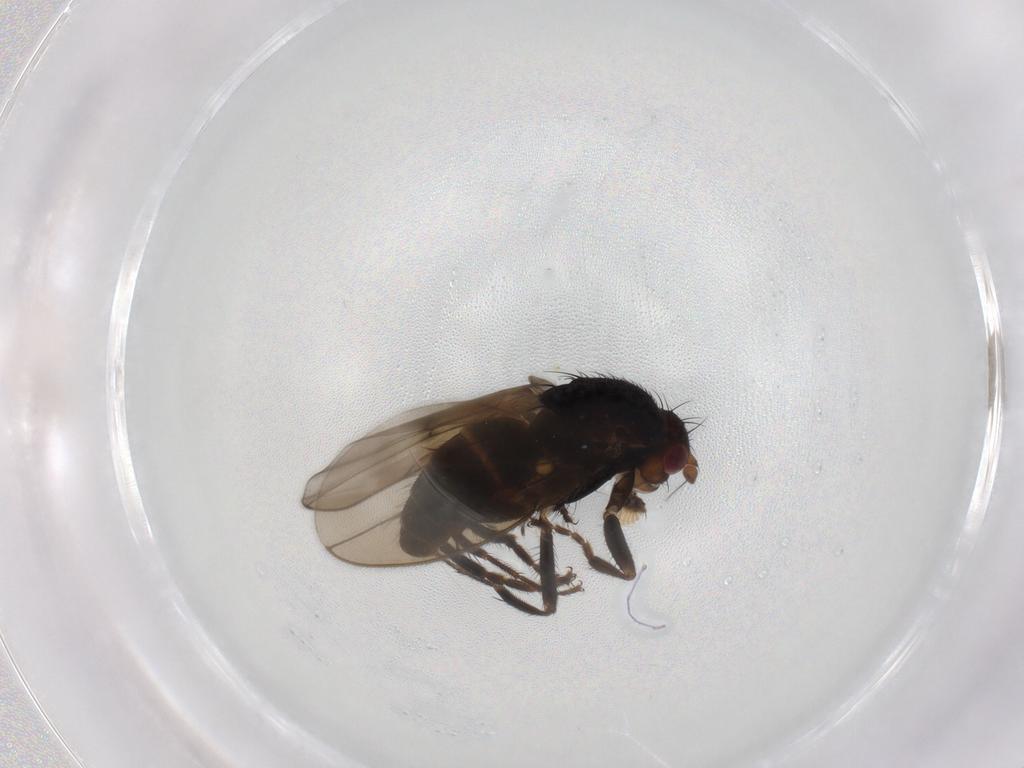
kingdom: Animalia
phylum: Arthropoda
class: Insecta
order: Diptera
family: Sphaeroceridae
